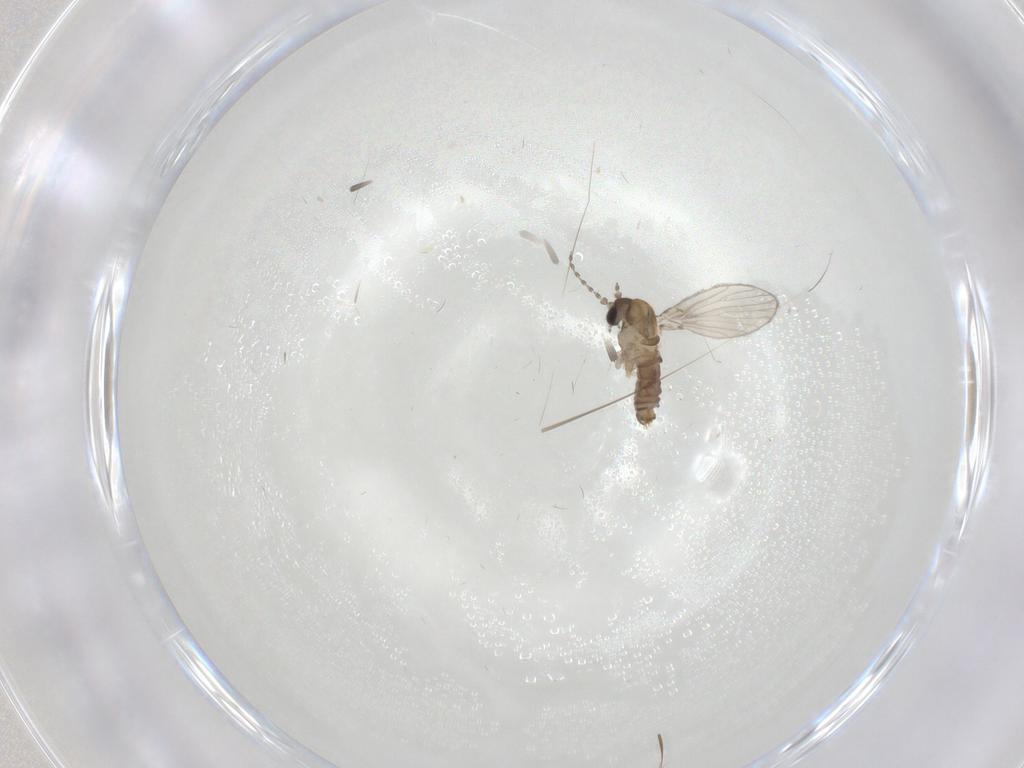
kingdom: Animalia
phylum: Arthropoda
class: Insecta
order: Diptera
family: Psychodidae
